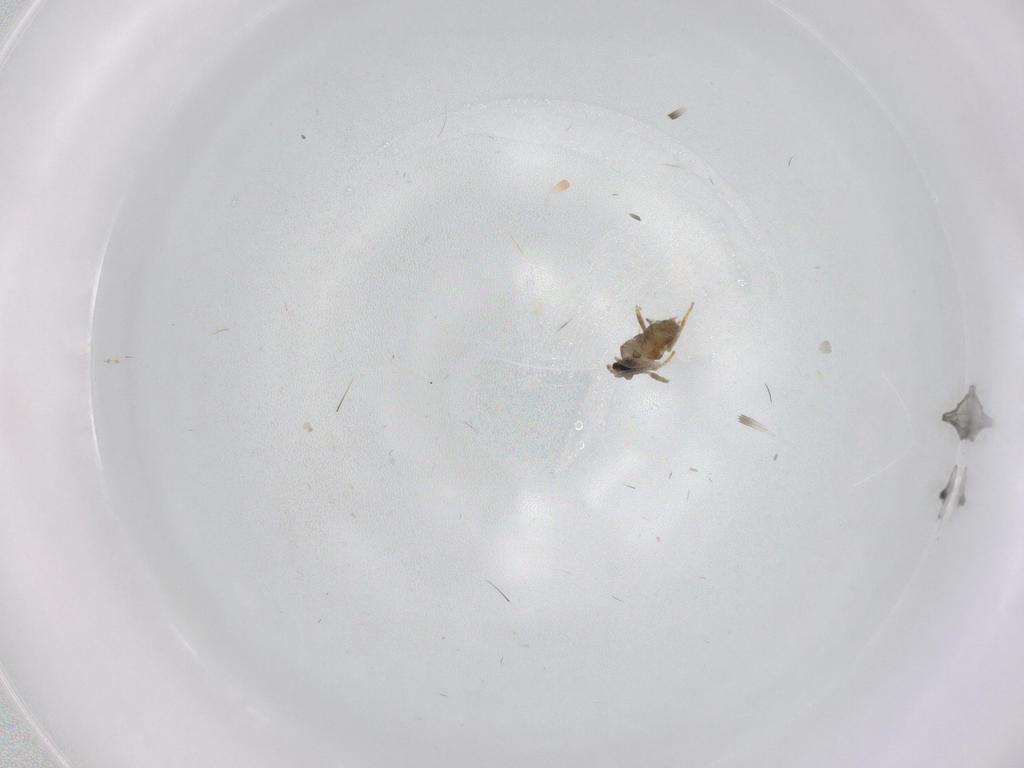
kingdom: Animalia
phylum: Arthropoda
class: Insecta
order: Diptera
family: Cecidomyiidae
